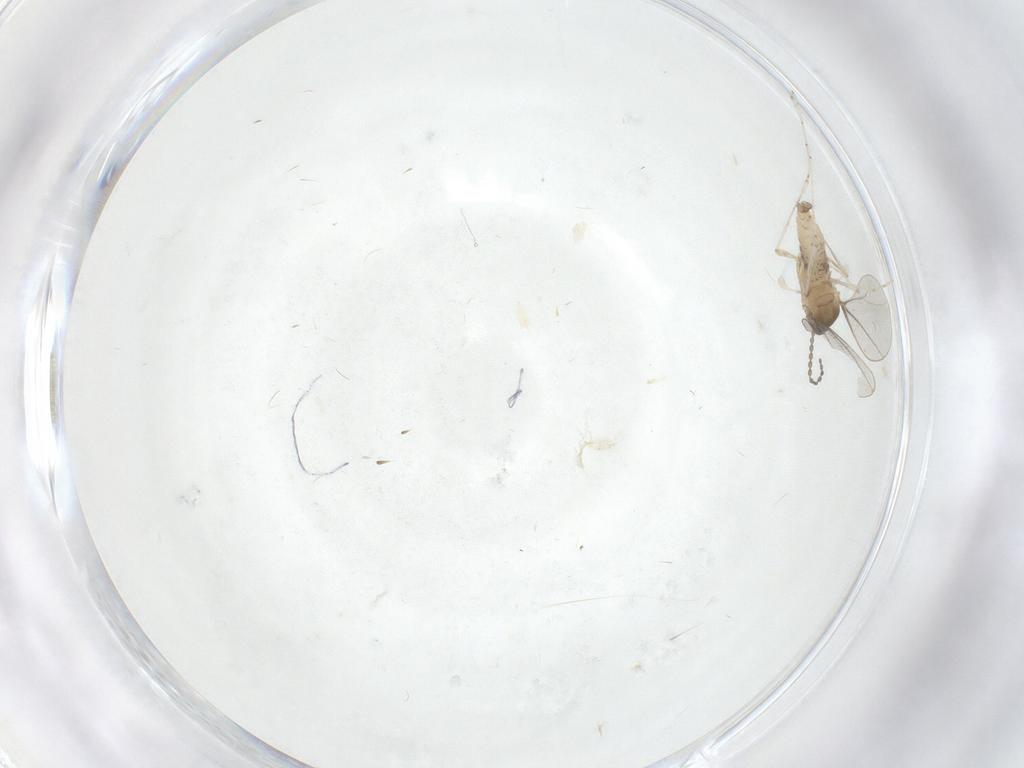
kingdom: Animalia
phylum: Arthropoda
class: Insecta
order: Diptera
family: Cecidomyiidae
